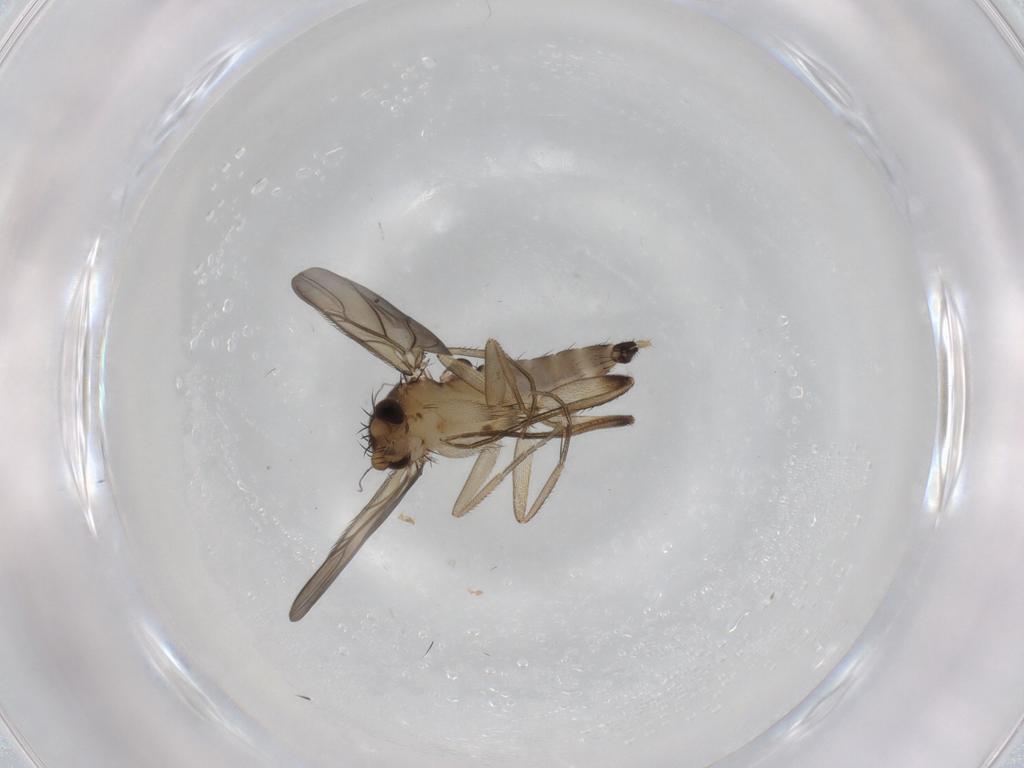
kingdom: Animalia
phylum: Arthropoda
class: Insecta
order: Diptera
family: Phoridae
